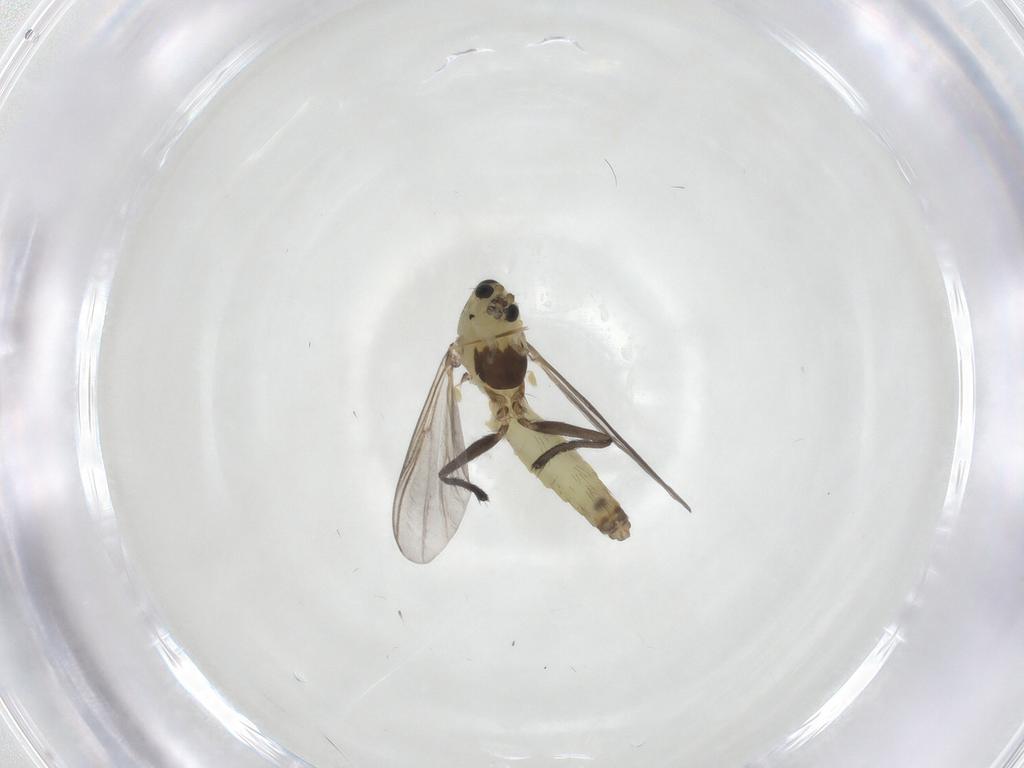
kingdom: Animalia
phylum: Arthropoda
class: Insecta
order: Diptera
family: Chironomidae
